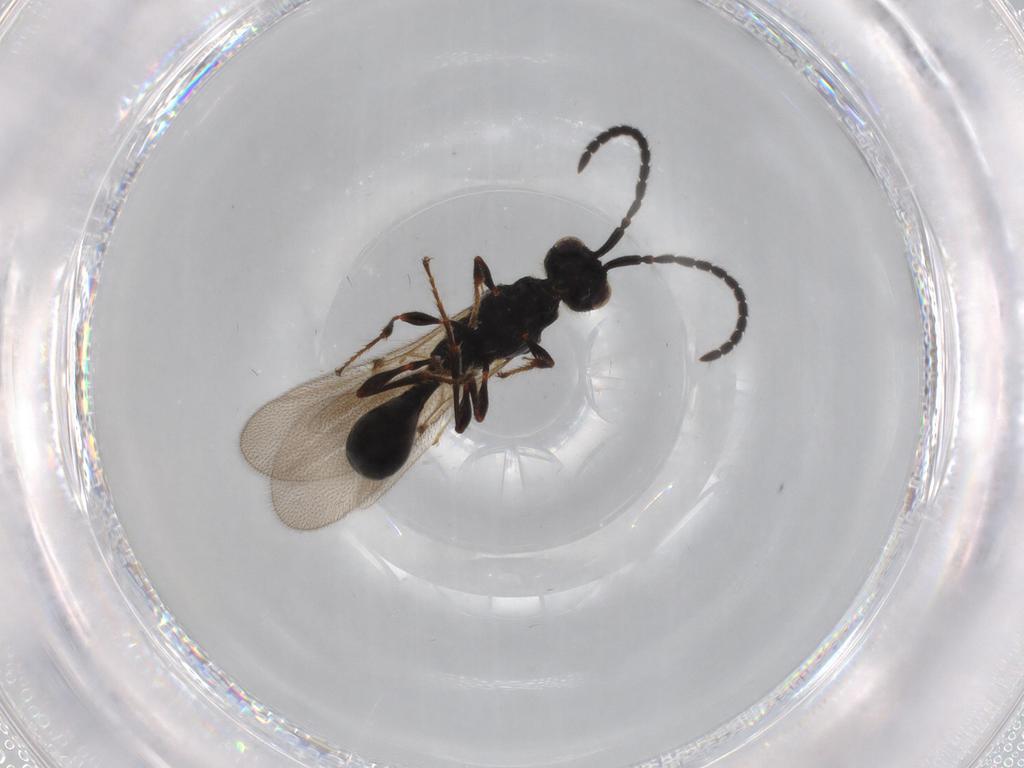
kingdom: Animalia
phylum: Arthropoda
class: Insecta
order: Hymenoptera
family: Diapriidae
